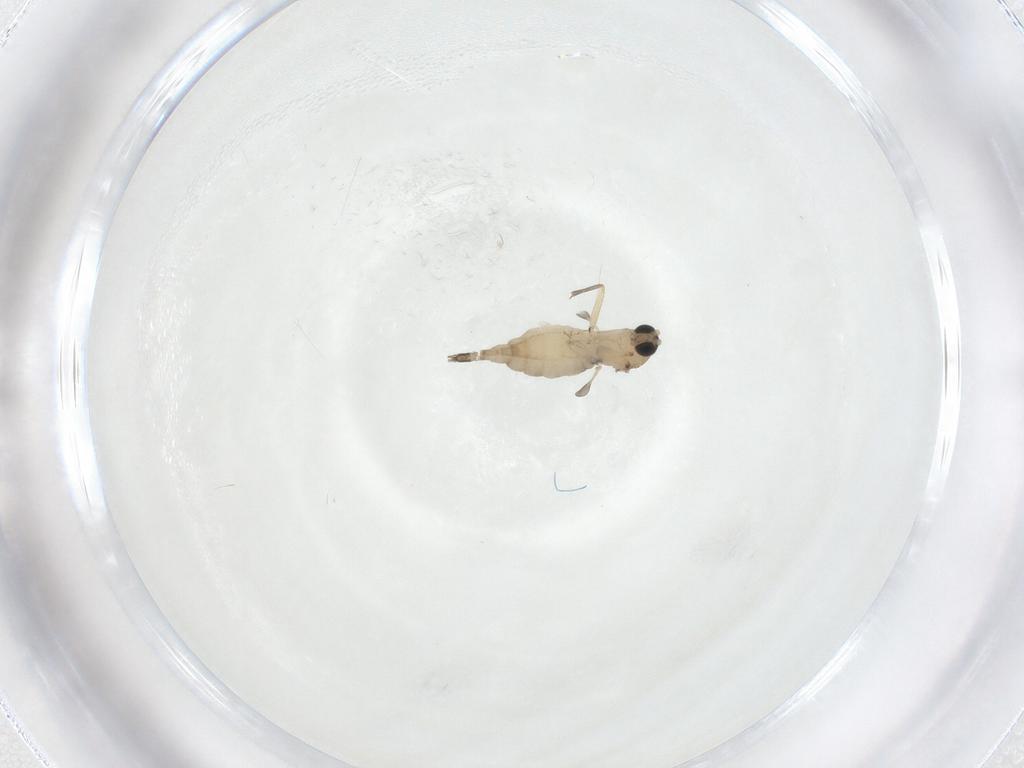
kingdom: Animalia
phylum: Arthropoda
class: Insecta
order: Diptera
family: Sciaridae
